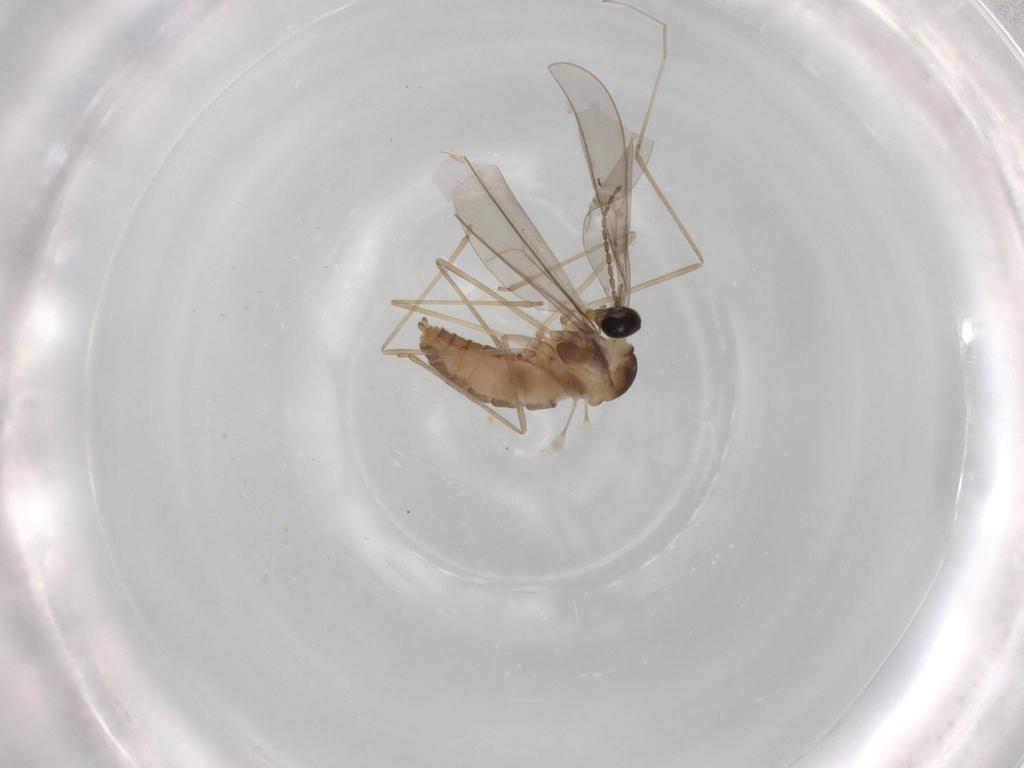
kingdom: Animalia
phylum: Arthropoda
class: Insecta
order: Diptera
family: Cecidomyiidae
